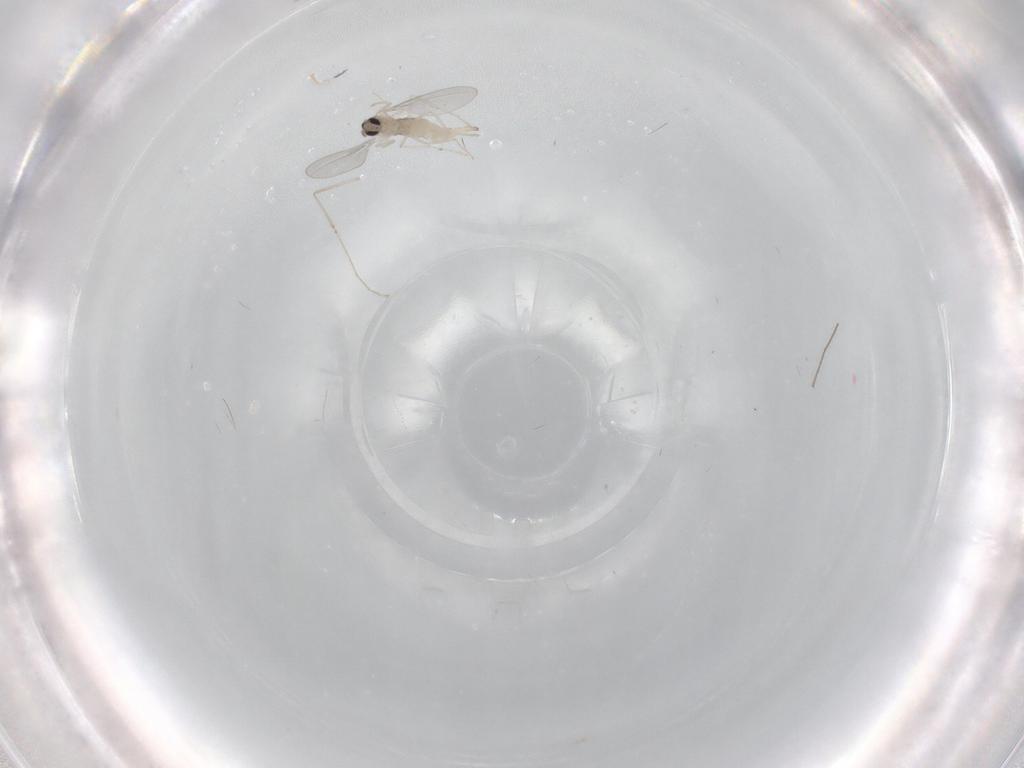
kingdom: Animalia
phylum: Arthropoda
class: Insecta
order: Diptera
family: Cecidomyiidae
